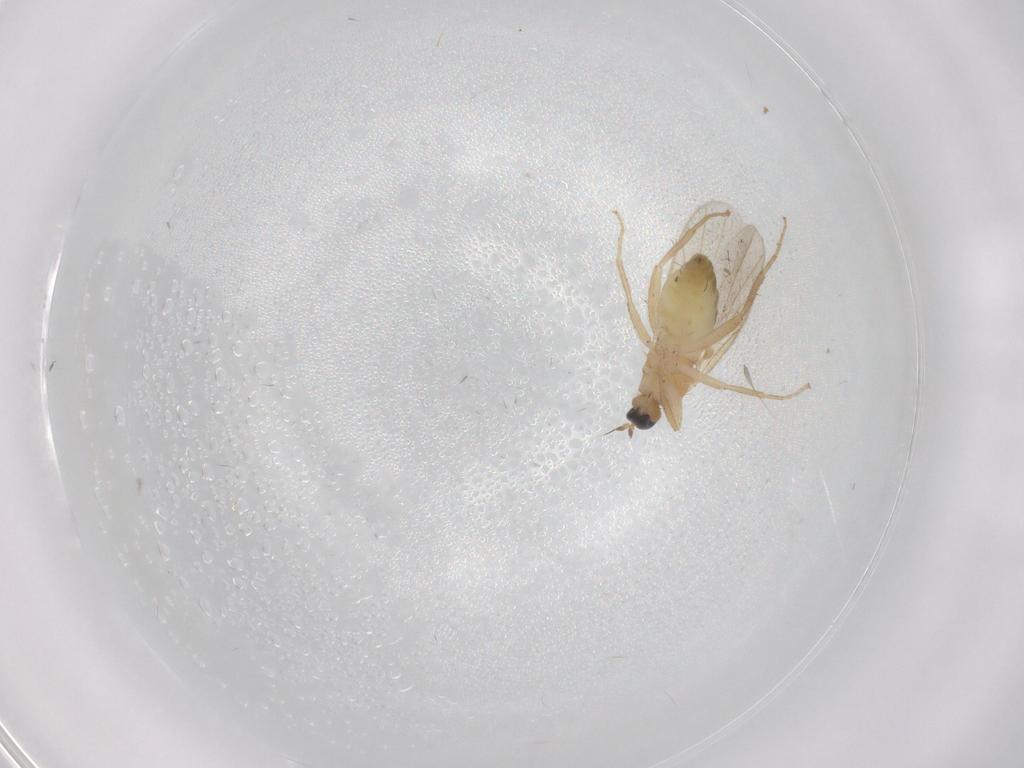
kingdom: Animalia
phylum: Arthropoda
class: Insecta
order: Diptera
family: Hybotidae
